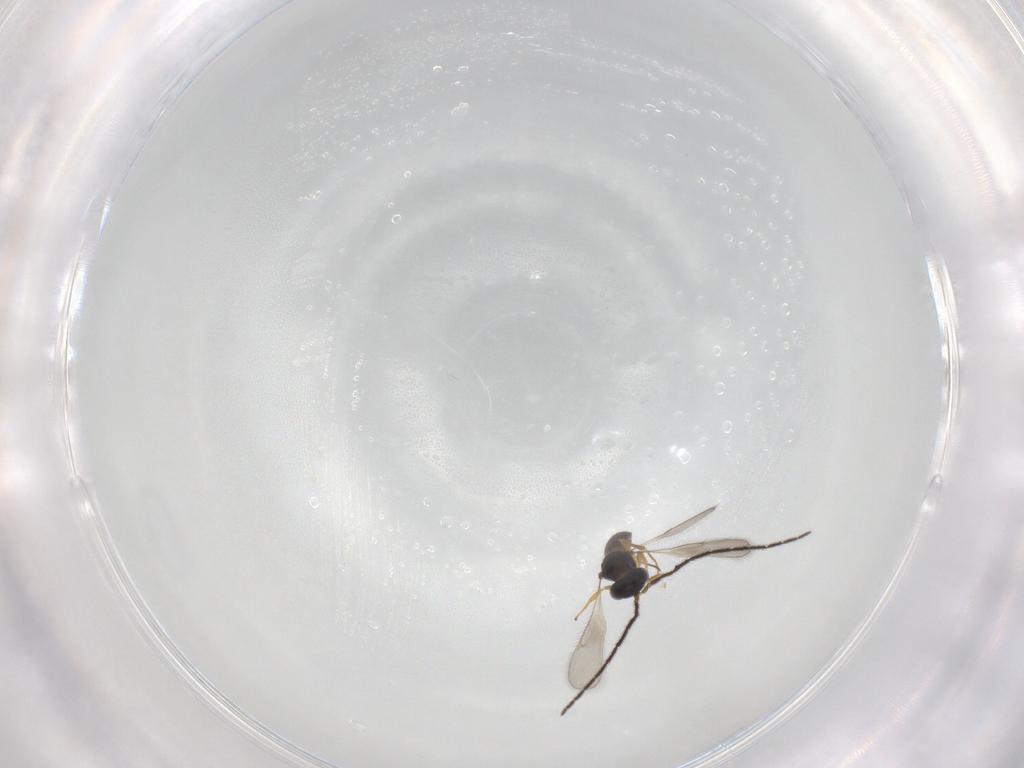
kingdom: Animalia
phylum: Arthropoda
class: Insecta
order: Hymenoptera
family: Scelionidae
